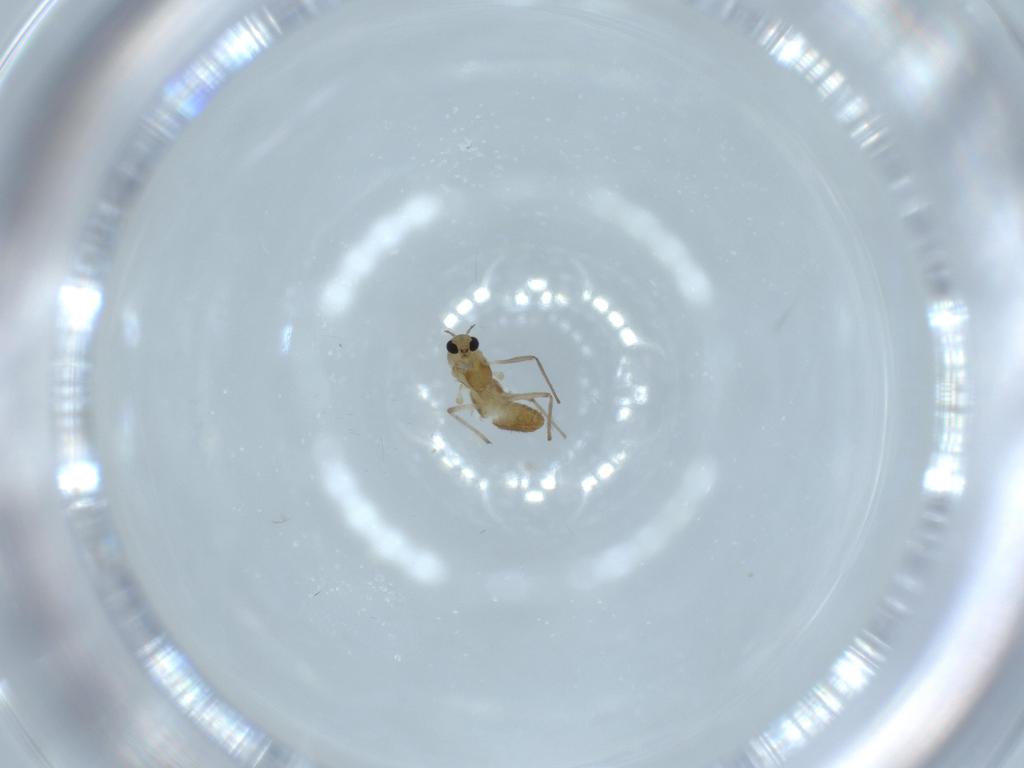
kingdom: Animalia
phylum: Arthropoda
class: Insecta
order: Diptera
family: Chironomidae
